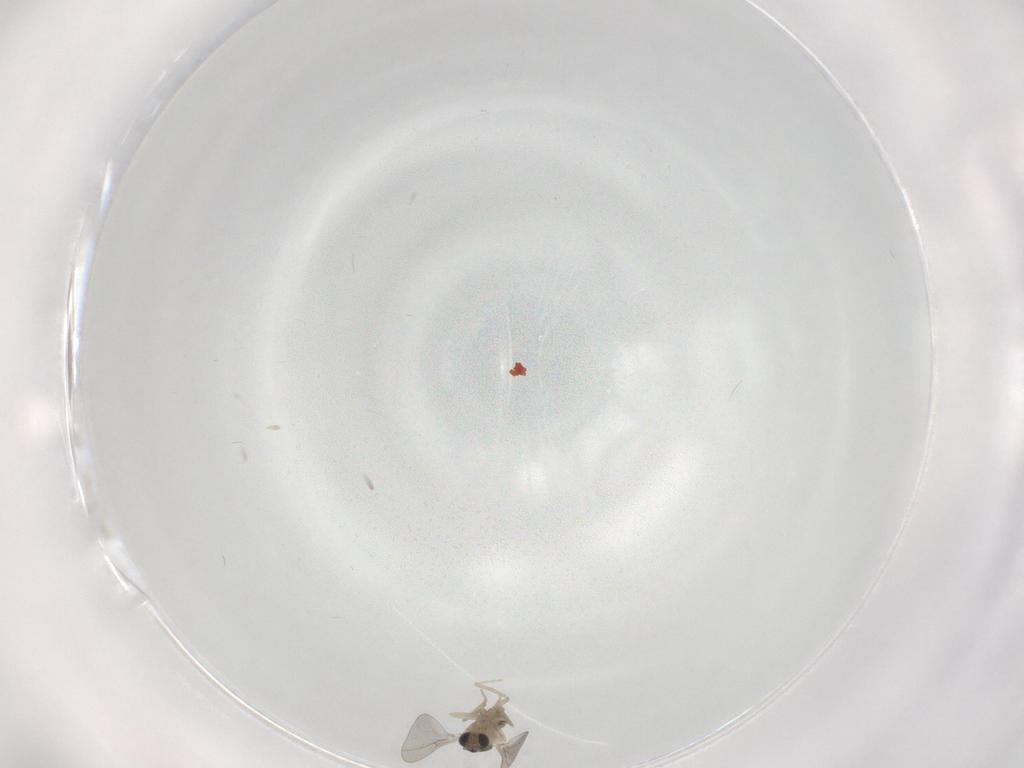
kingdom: Animalia
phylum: Arthropoda
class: Insecta
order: Diptera
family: Cecidomyiidae
